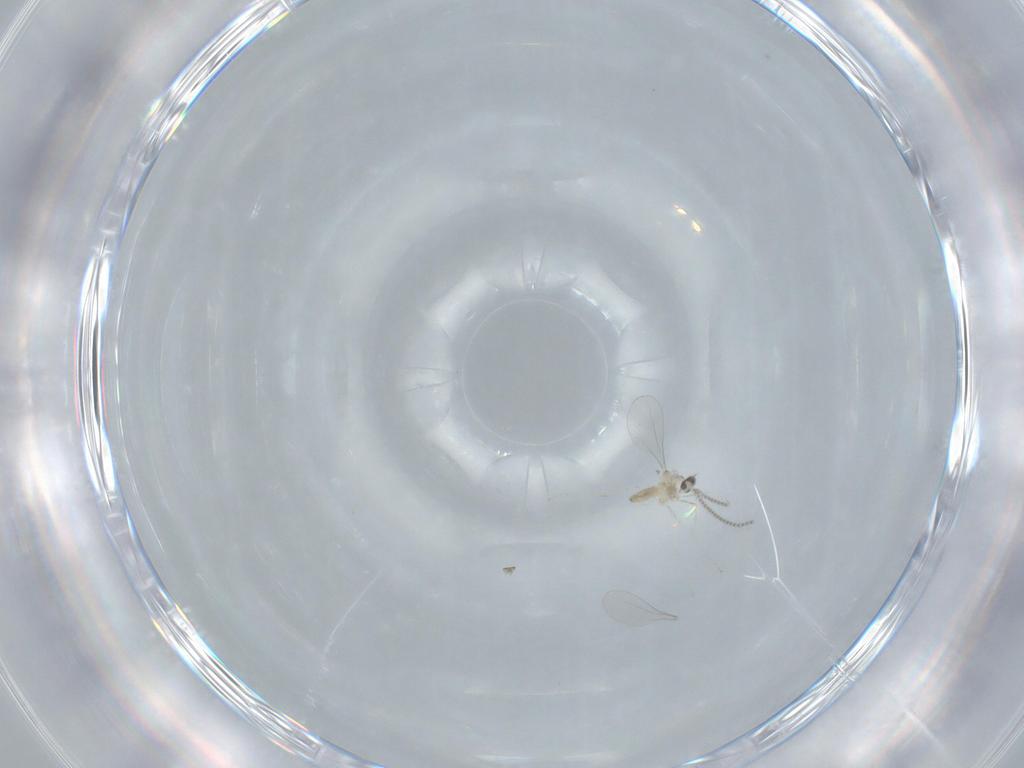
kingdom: Animalia
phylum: Arthropoda
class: Insecta
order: Diptera
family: Cecidomyiidae
